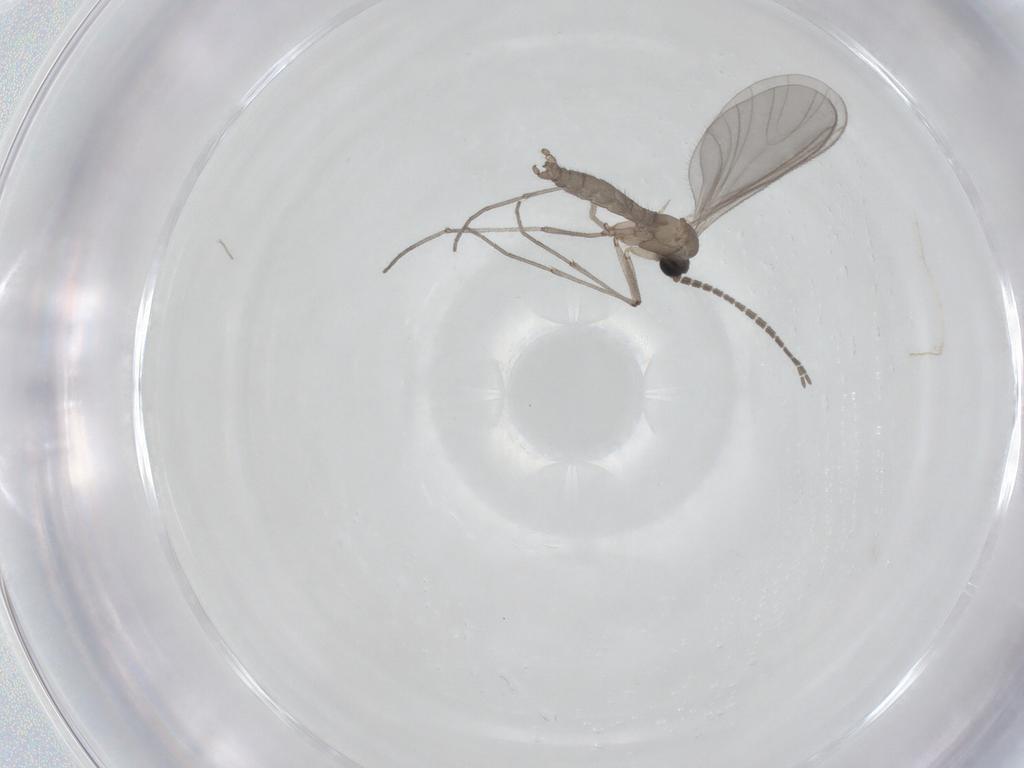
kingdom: Animalia
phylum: Arthropoda
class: Insecta
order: Diptera
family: Sciaridae
